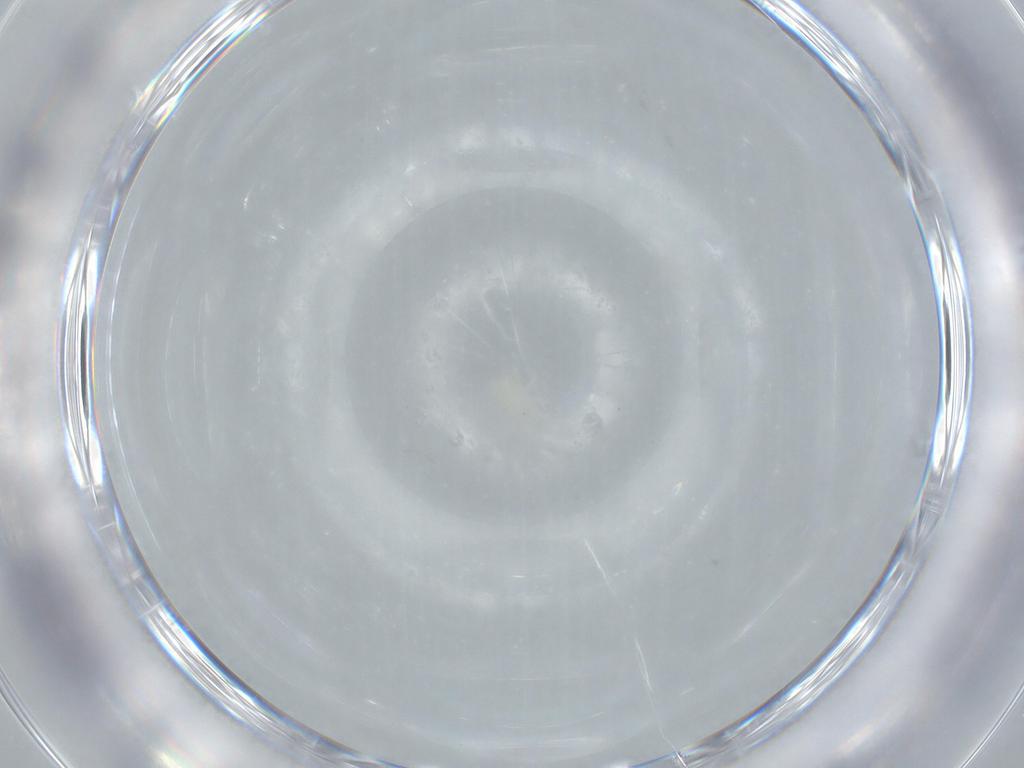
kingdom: Animalia
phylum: Arthropoda
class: Arachnida
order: Mesostigmata
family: Dermanyssidae
